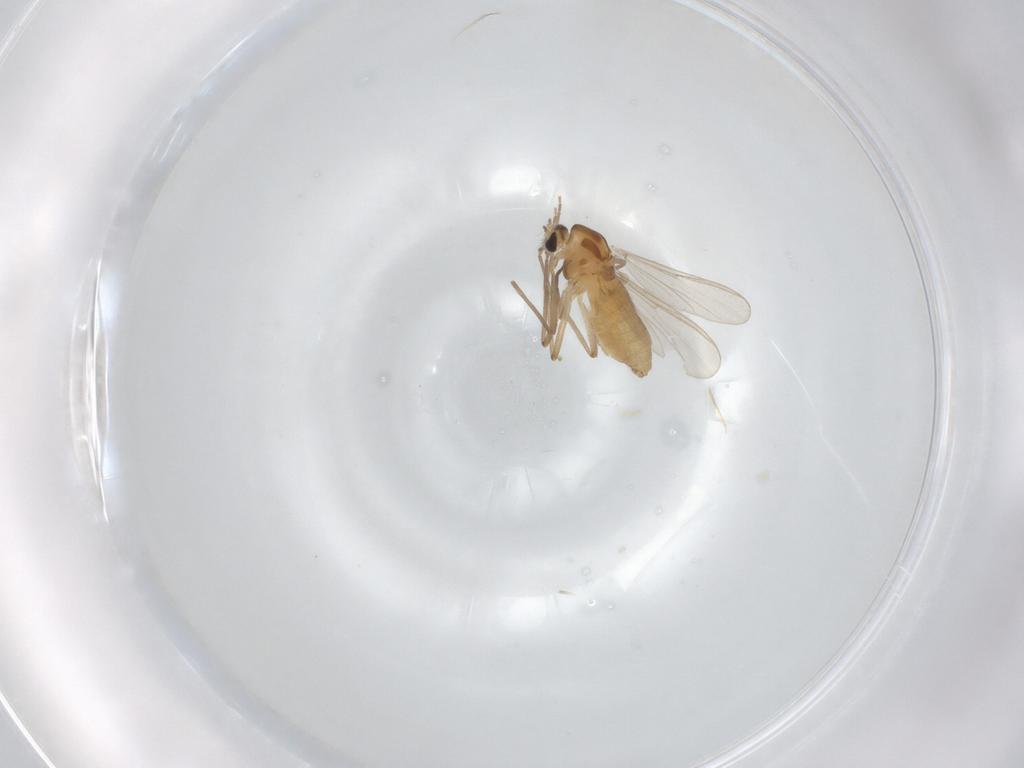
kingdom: Animalia
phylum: Arthropoda
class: Insecta
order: Diptera
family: Chironomidae
